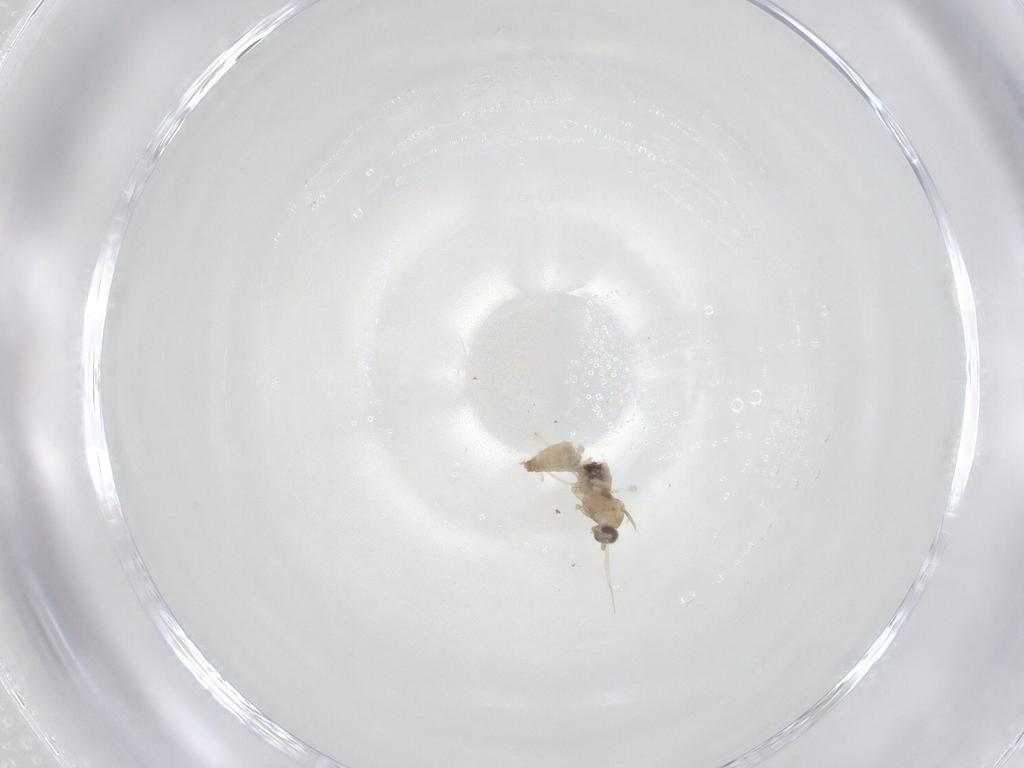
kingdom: Animalia
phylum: Arthropoda
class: Insecta
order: Diptera
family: Cecidomyiidae
